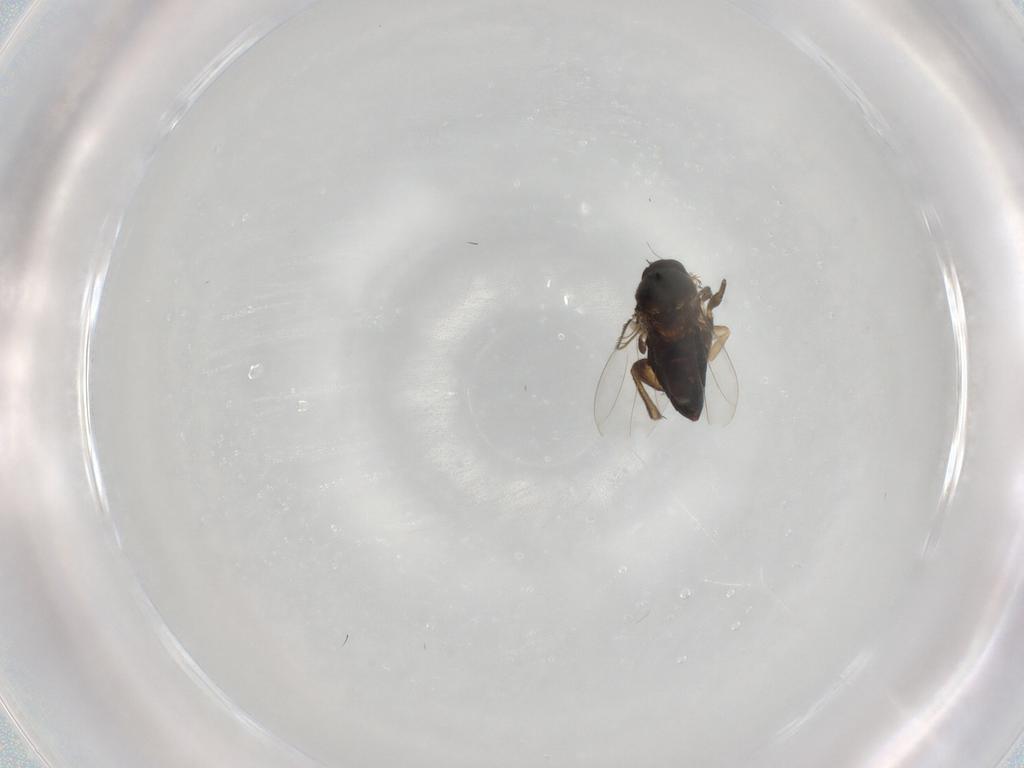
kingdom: Animalia
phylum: Arthropoda
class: Insecta
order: Diptera
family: Phoridae
